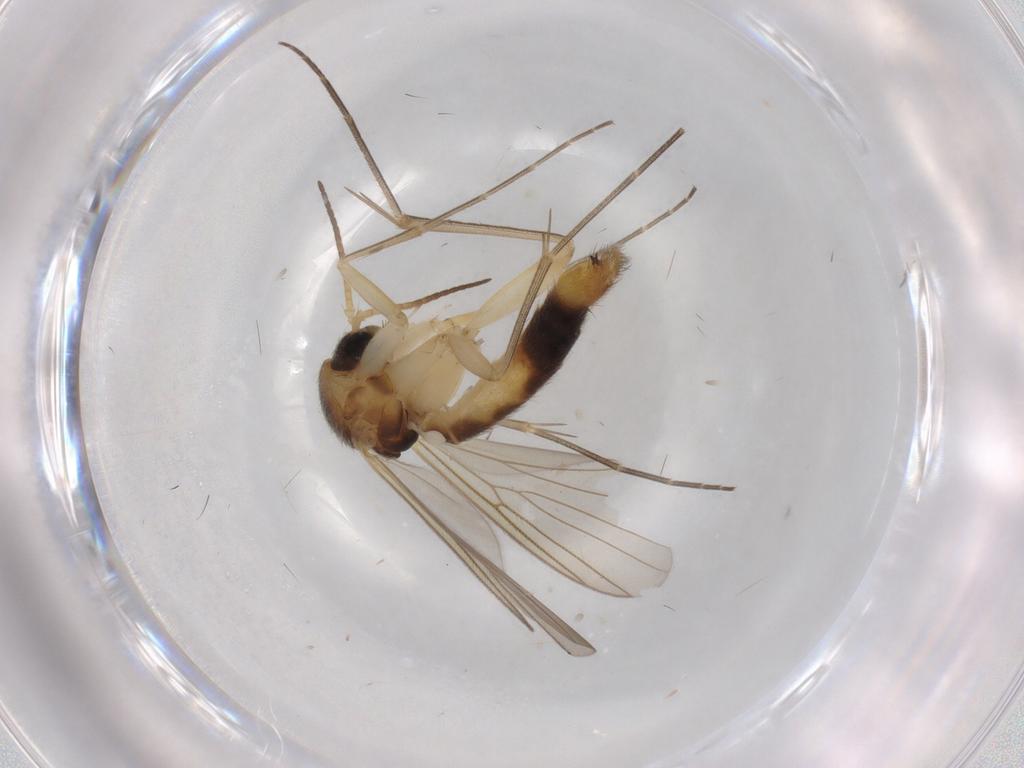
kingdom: Animalia
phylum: Arthropoda
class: Insecta
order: Diptera
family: Mycetophilidae
